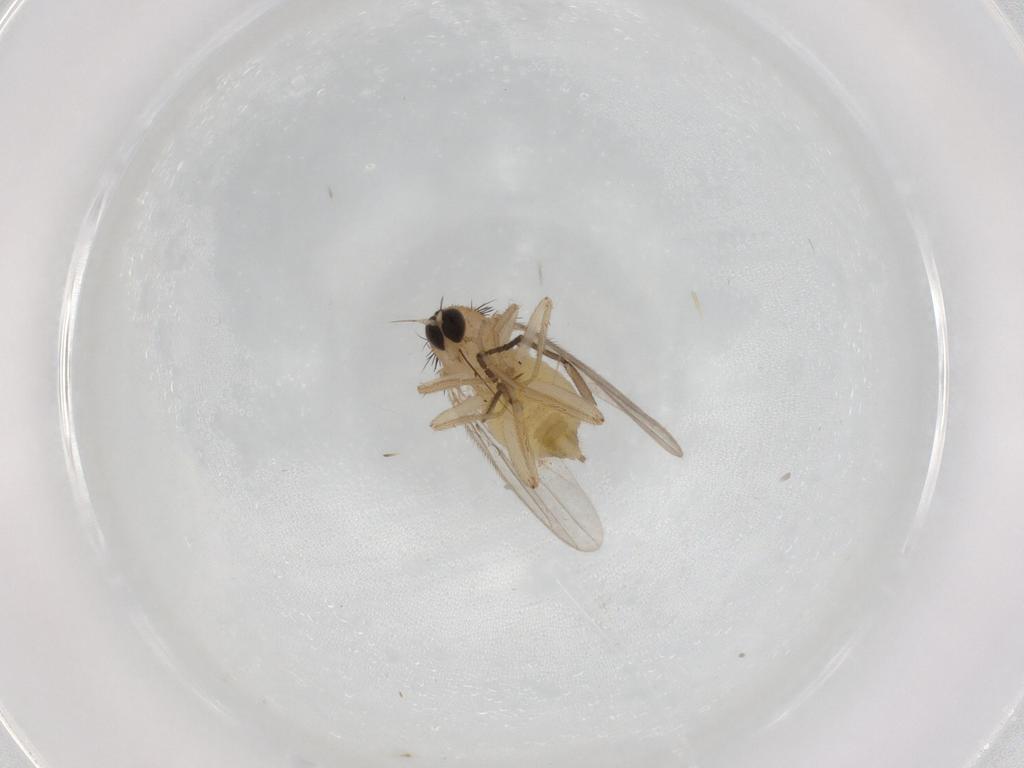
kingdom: Animalia
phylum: Arthropoda
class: Insecta
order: Diptera
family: Hybotidae
